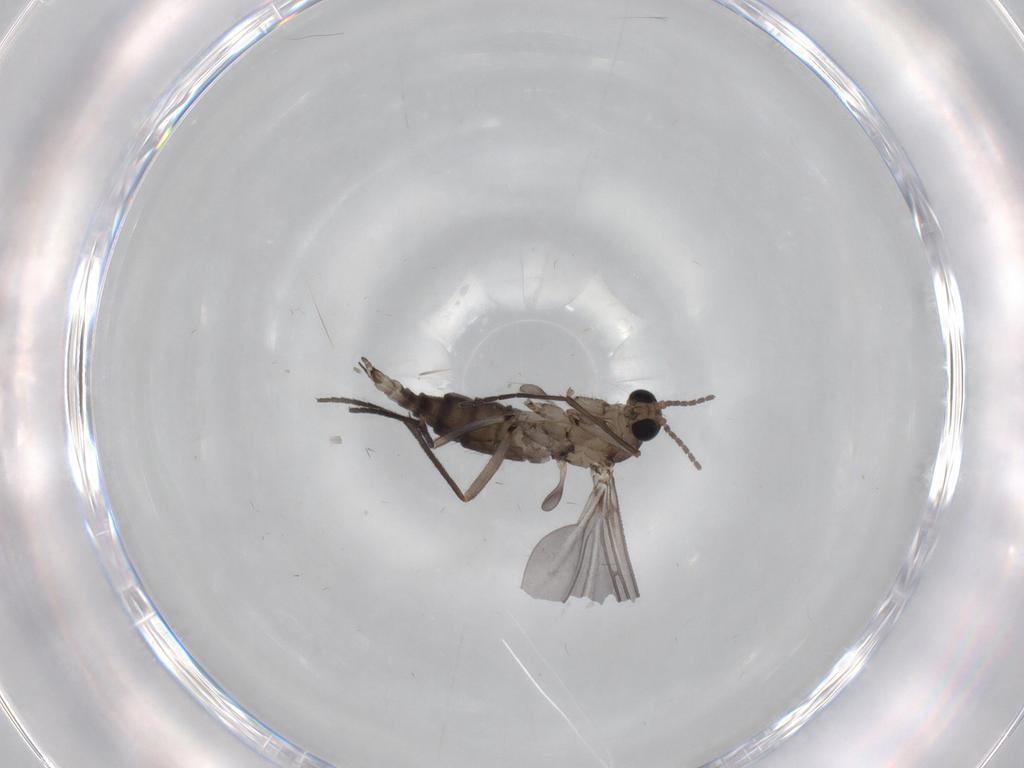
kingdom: Animalia
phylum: Arthropoda
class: Insecta
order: Diptera
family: Sciaridae
